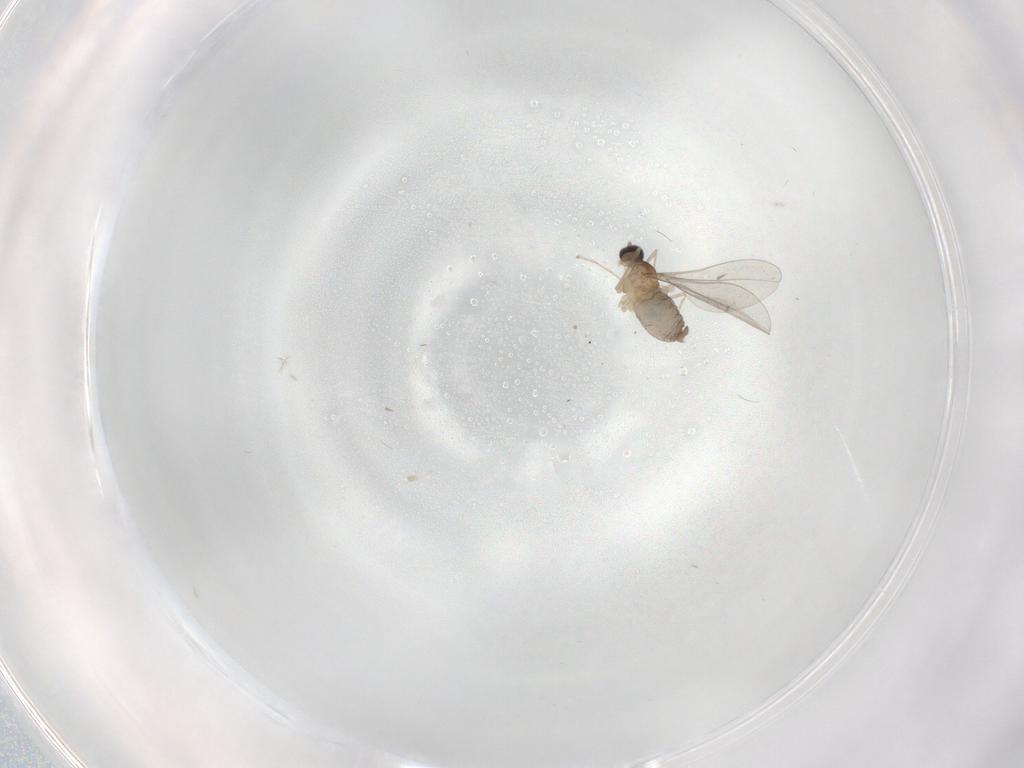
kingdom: Animalia
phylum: Arthropoda
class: Insecta
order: Diptera
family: Cecidomyiidae
